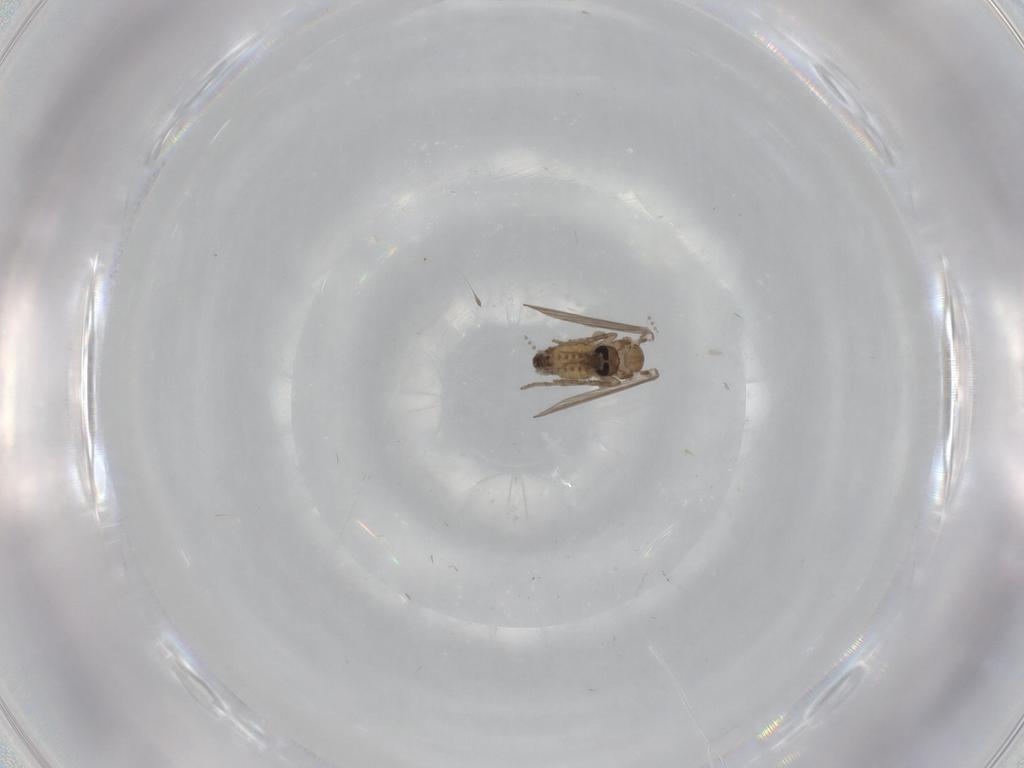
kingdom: Animalia
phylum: Arthropoda
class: Insecta
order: Diptera
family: Psychodidae
